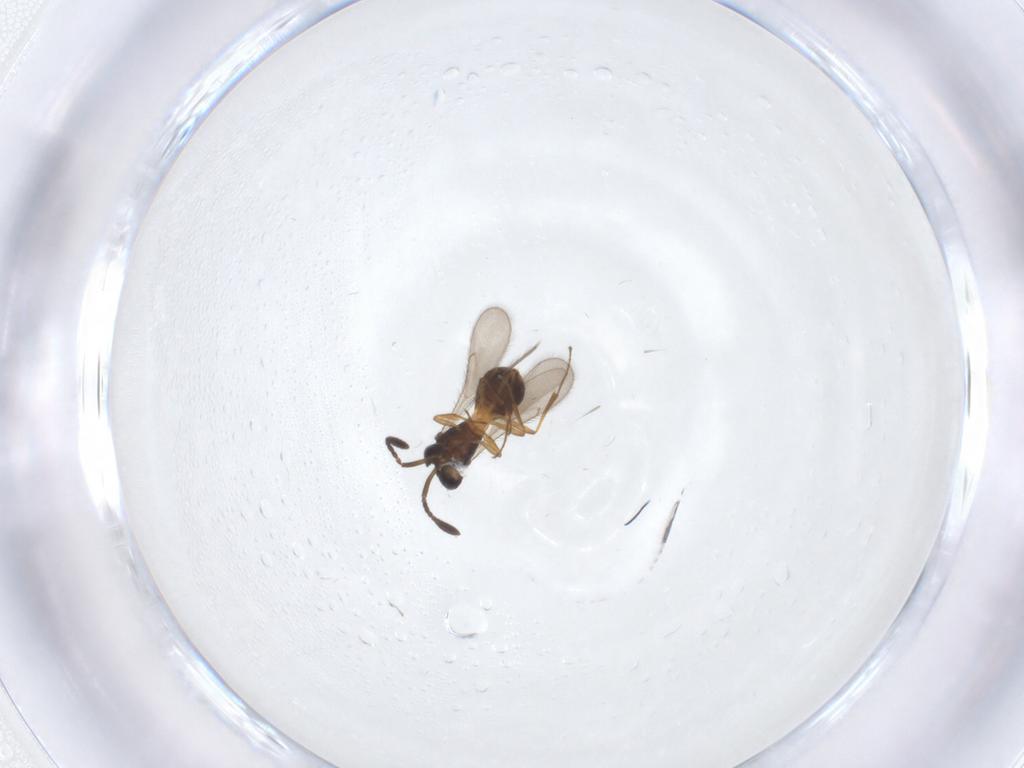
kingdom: Animalia
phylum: Arthropoda
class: Insecta
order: Hymenoptera
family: Scelionidae
